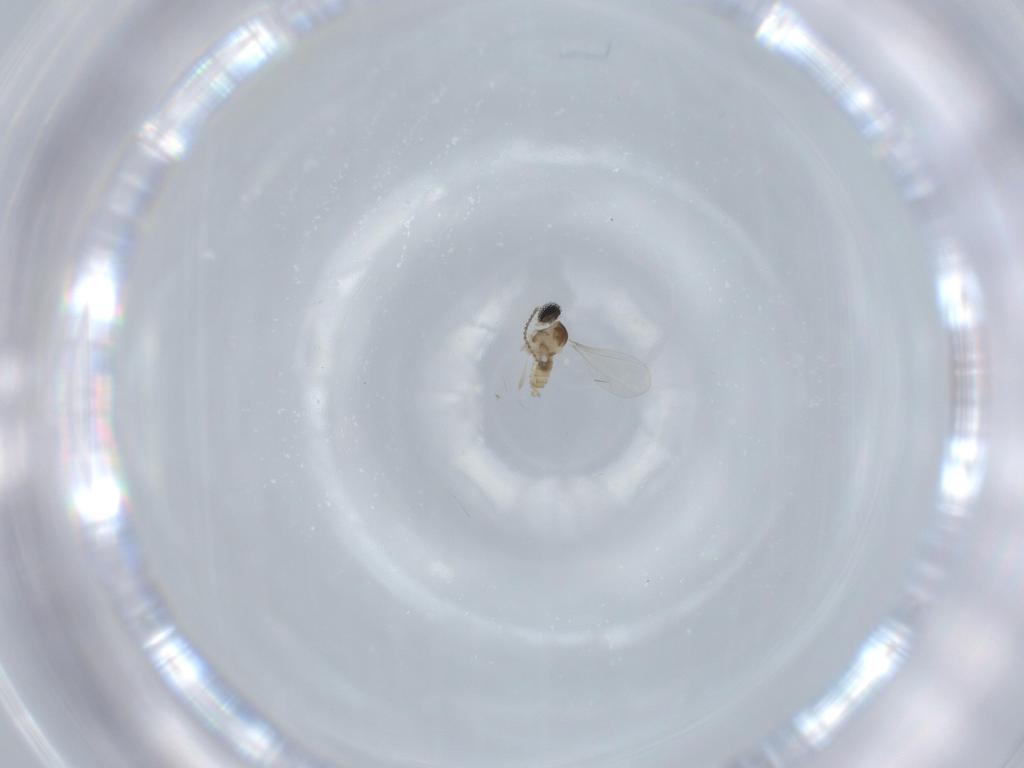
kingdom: Animalia
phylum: Arthropoda
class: Insecta
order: Diptera
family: Cecidomyiidae
